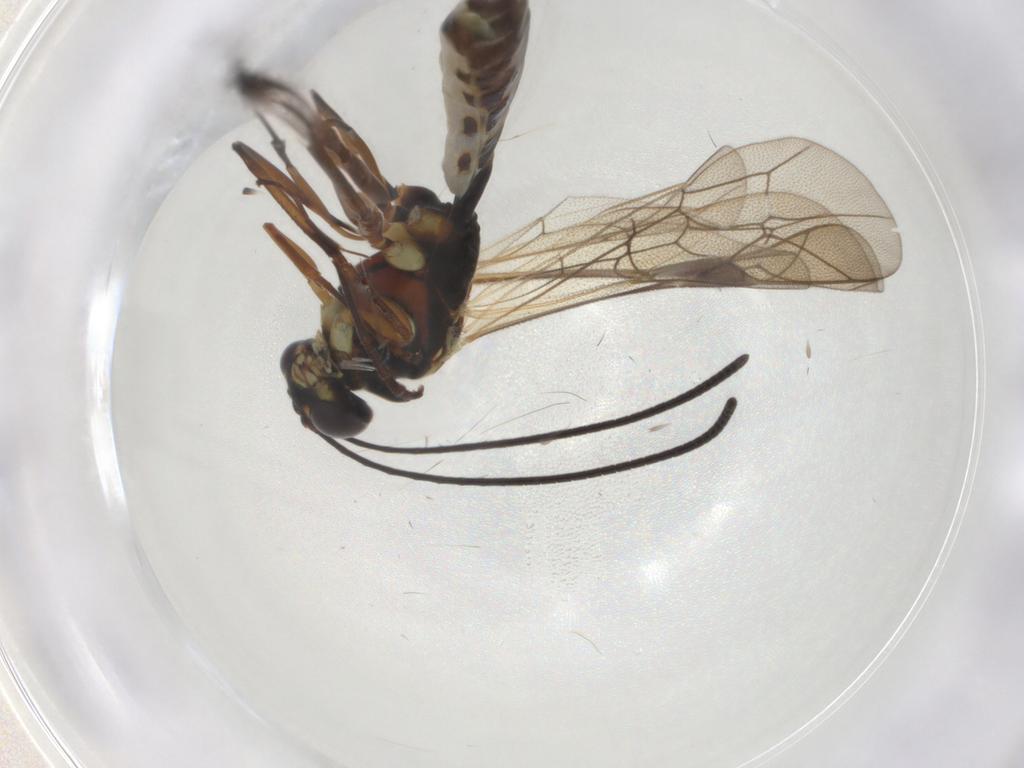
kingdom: Animalia
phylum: Arthropoda
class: Insecta
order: Hymenoptera
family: Ichneumonidae
